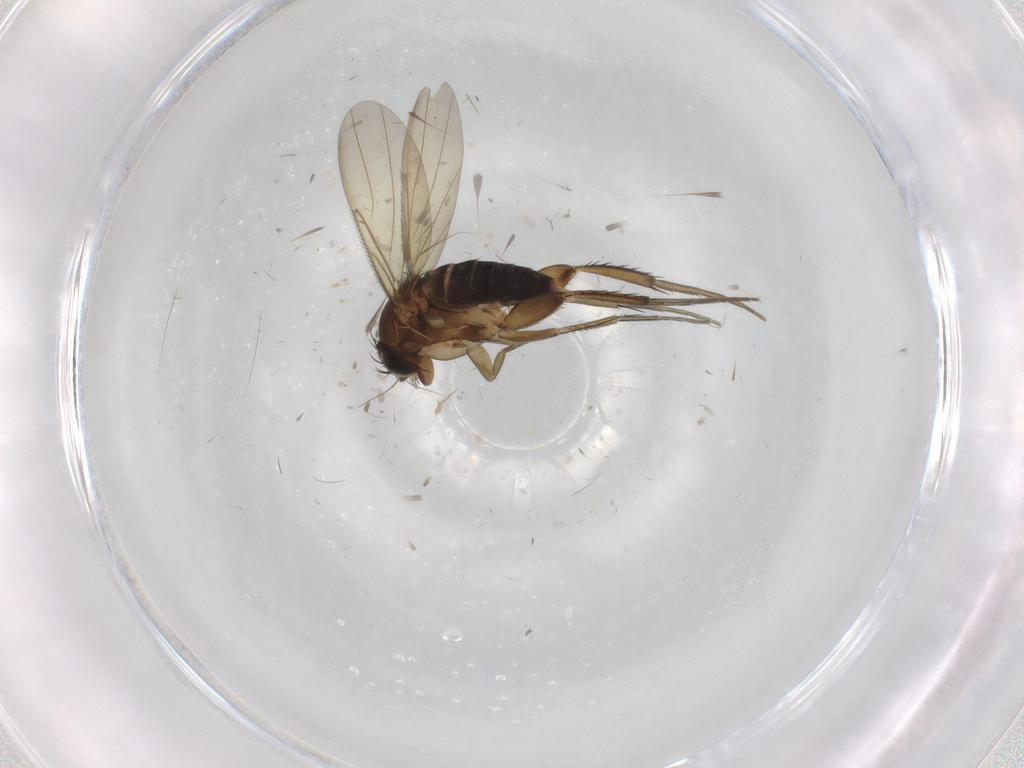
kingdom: Animalia
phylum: Arthropoda
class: Insecta
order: Diptera
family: Phoridae
